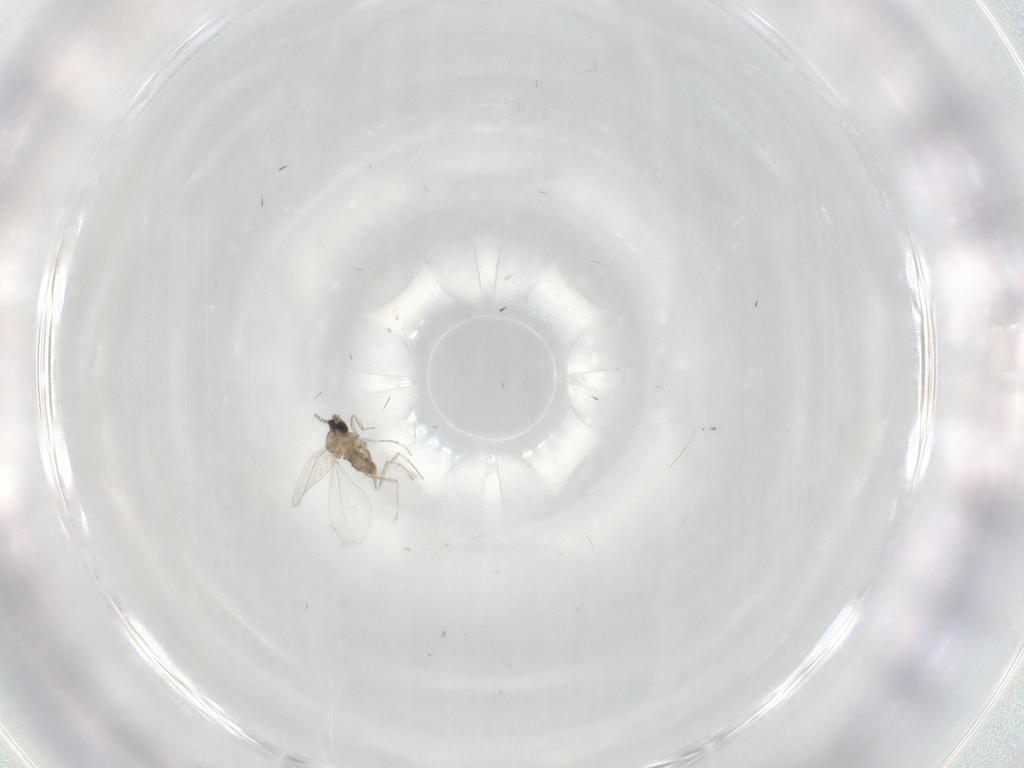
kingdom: Animalia
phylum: Arthropoda
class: Insecta
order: Diptera
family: Cecidomyiidae
